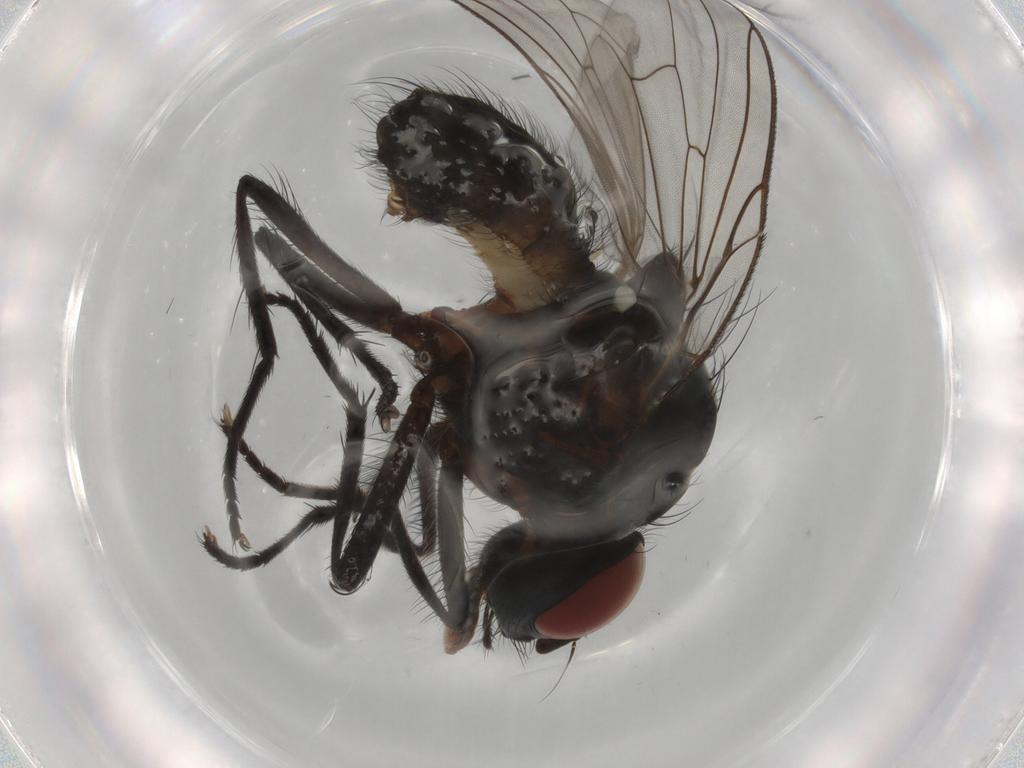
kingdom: Animalia
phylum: Arthropoda
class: Insecta
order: Diptera
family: Anthomyiidae
